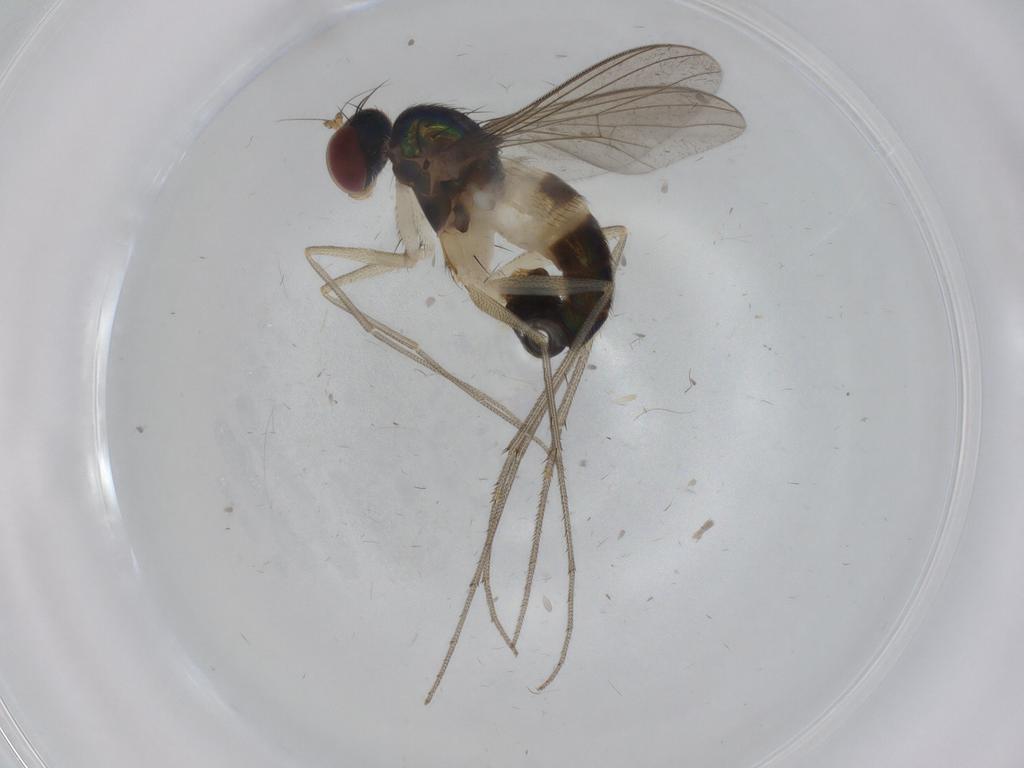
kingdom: Animalia
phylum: Arthropoda
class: Insecta
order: Diptera
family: Dolichopodidae
